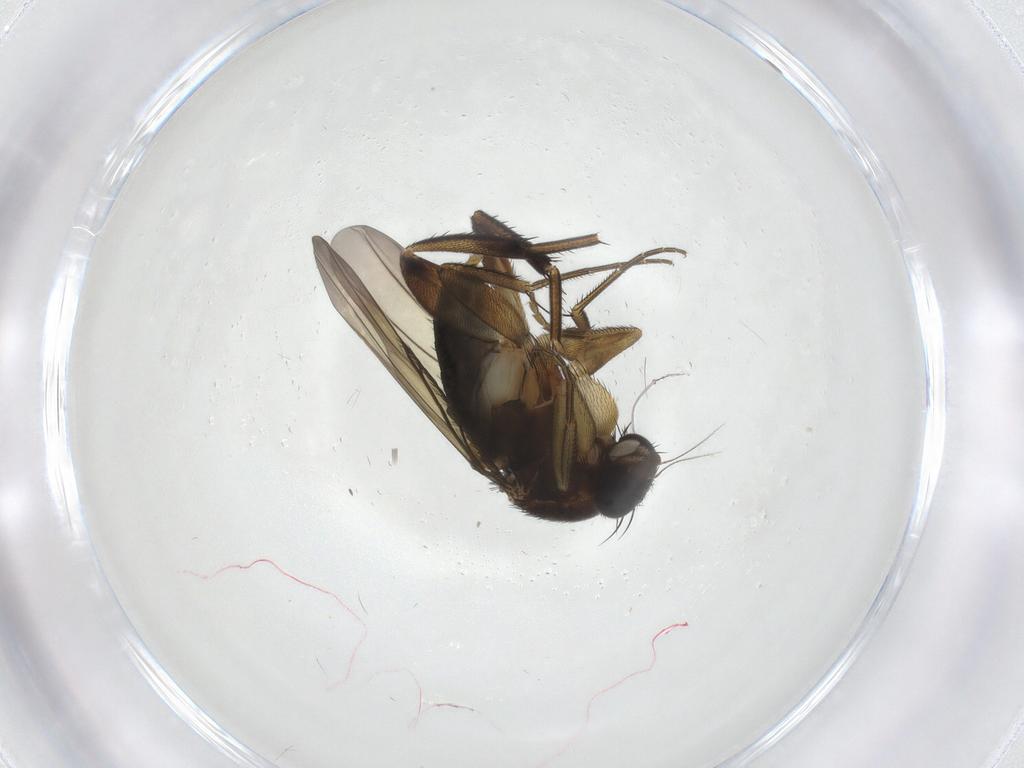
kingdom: Animalia
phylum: Arthropoda
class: Insecta
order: Diptera
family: Phoridae
